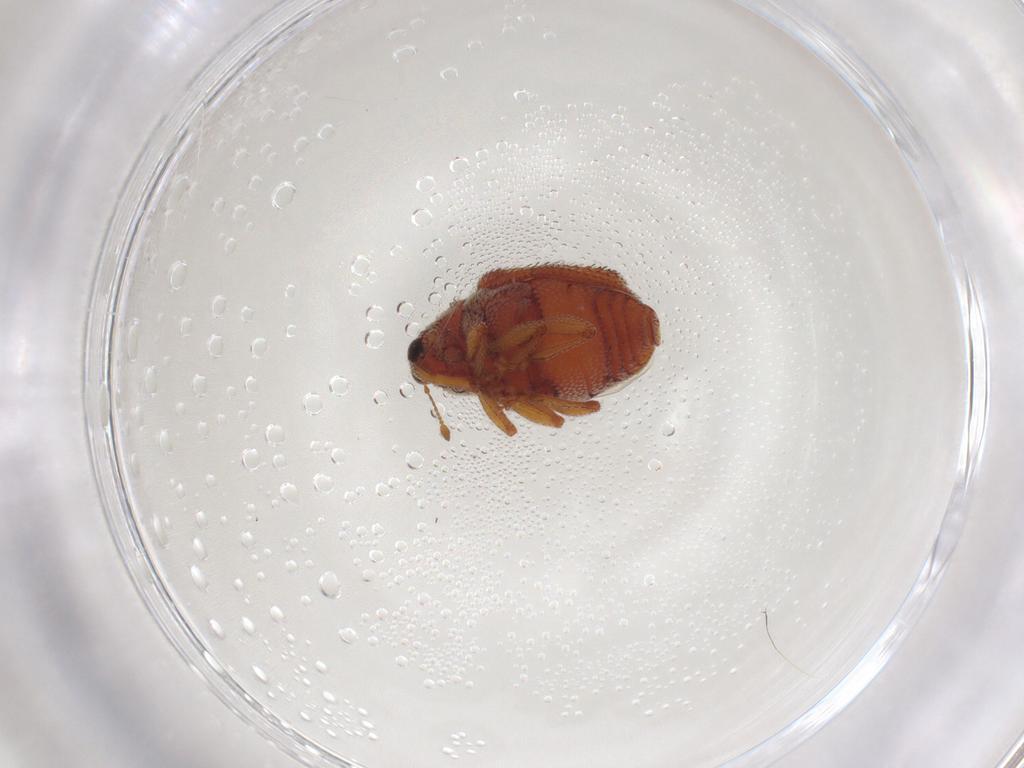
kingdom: Animalia
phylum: Arthropoda
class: Insecta
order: Coleoptera
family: Curculionidae
